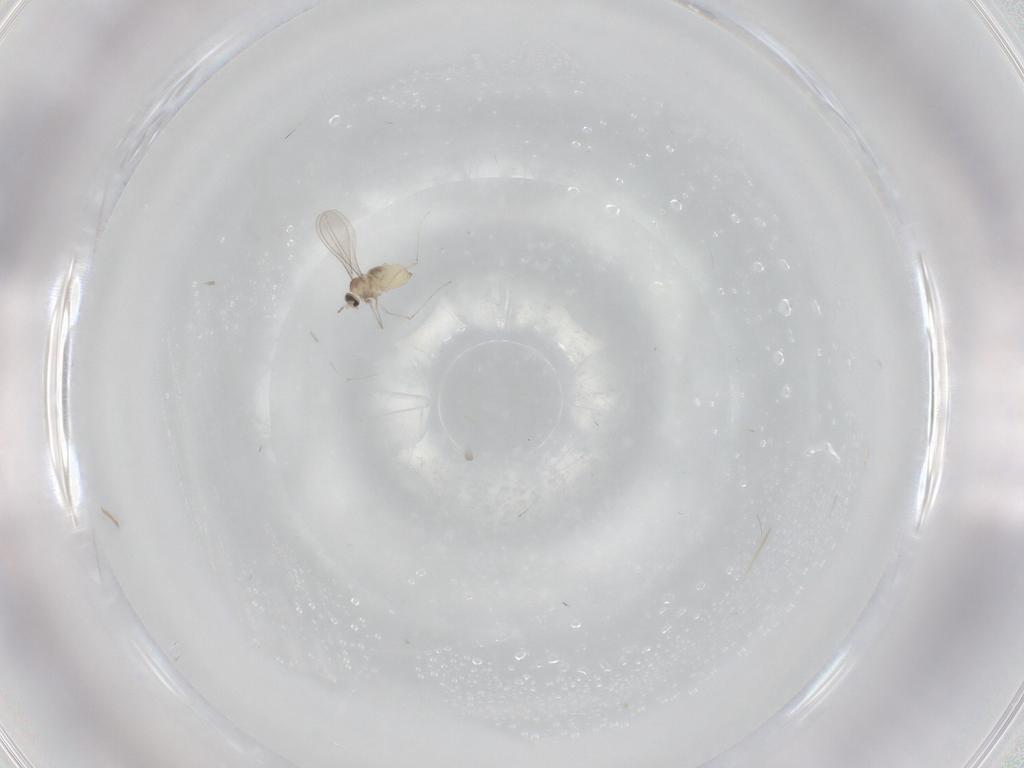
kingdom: Animalia
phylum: Arthropoda
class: Insecta
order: Diptera
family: Cecidomyiidae
